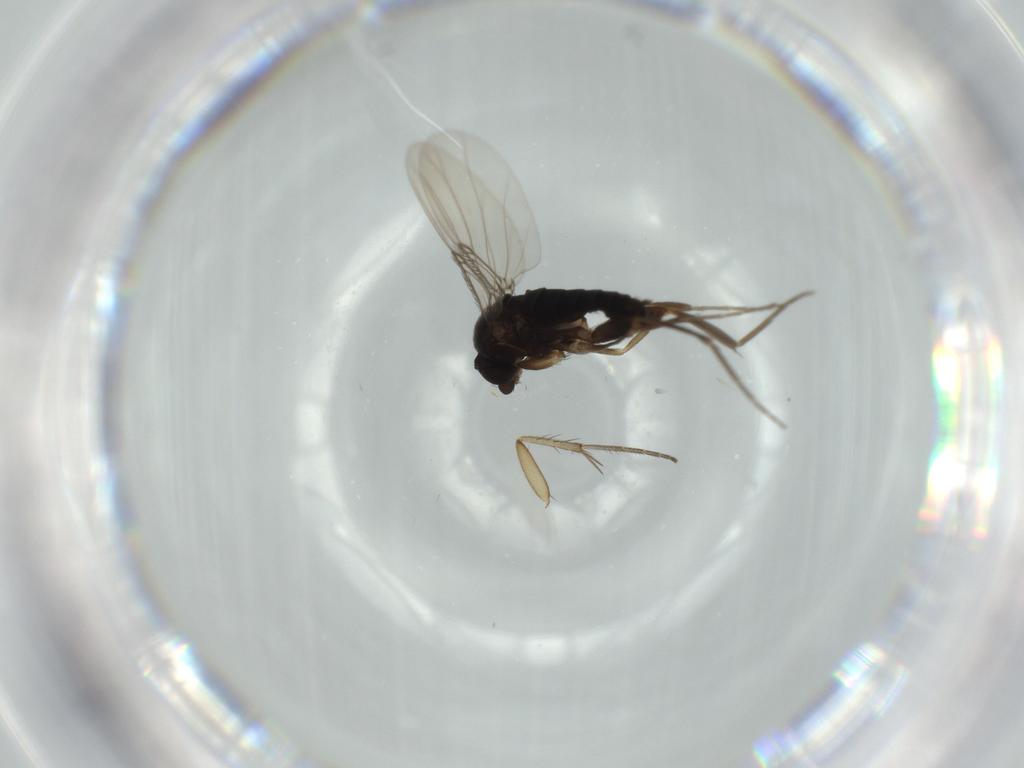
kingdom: Animalia
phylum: Arthropoda
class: Insecta
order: Diptera
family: Phoridae
